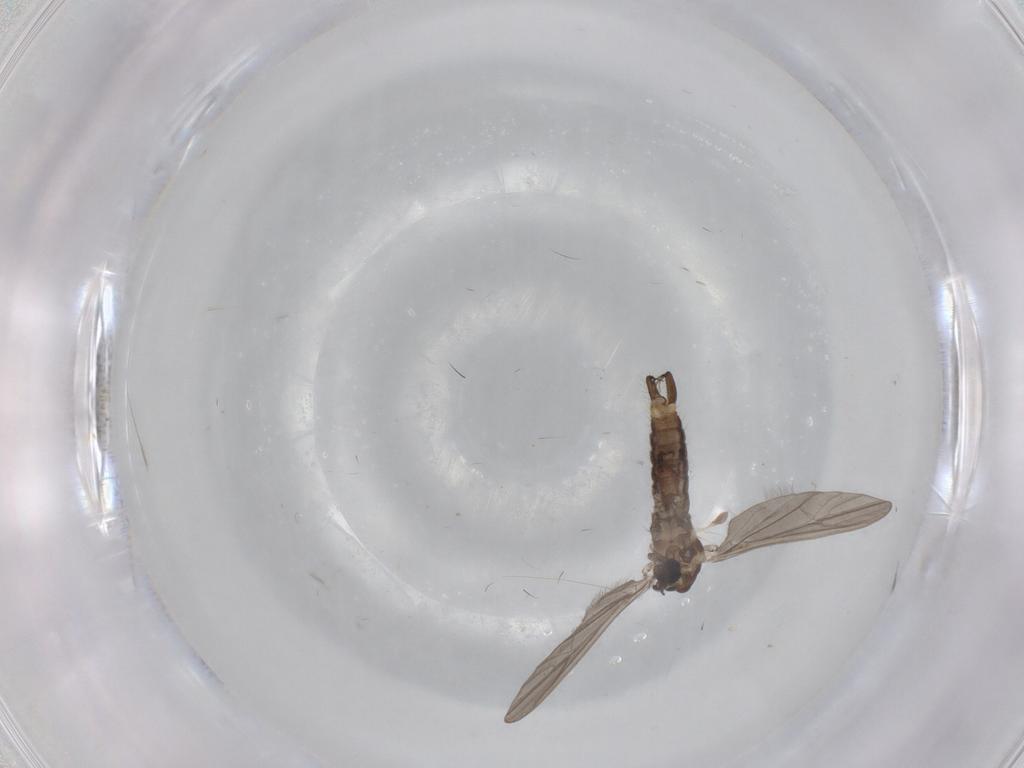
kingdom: Animalia
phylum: Arthropoda
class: Insecta
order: Diptera
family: Limoniidae
